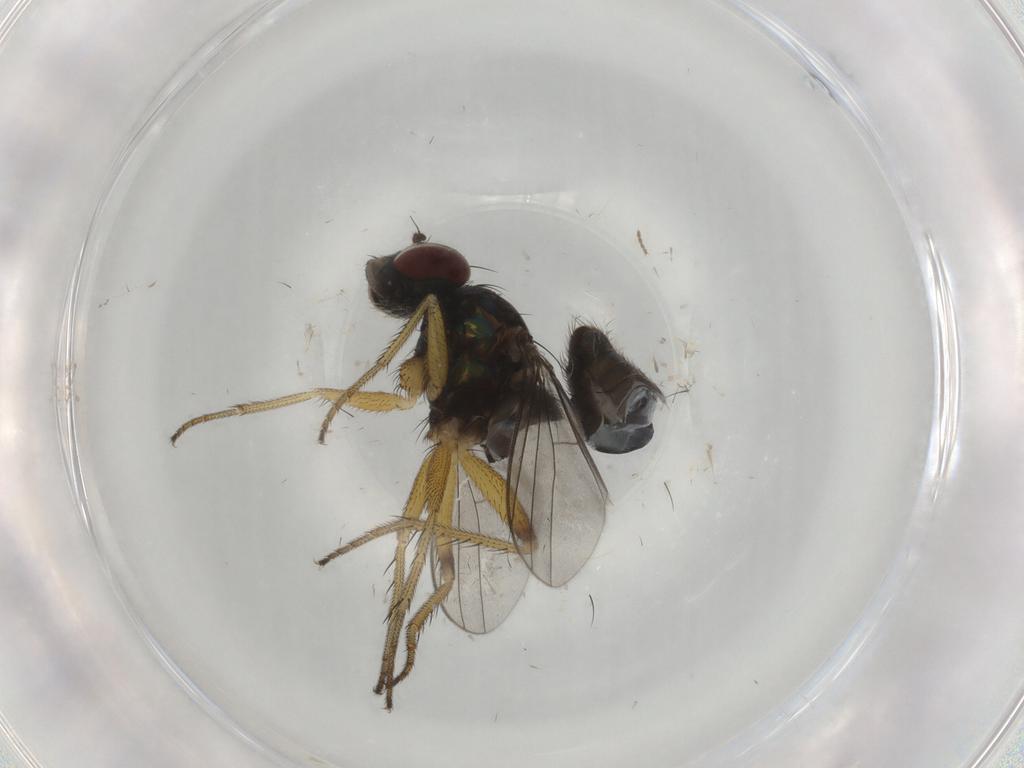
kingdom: Animalia
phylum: Arthropoda
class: Insecta
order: Diptera
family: Dolichopodidae
